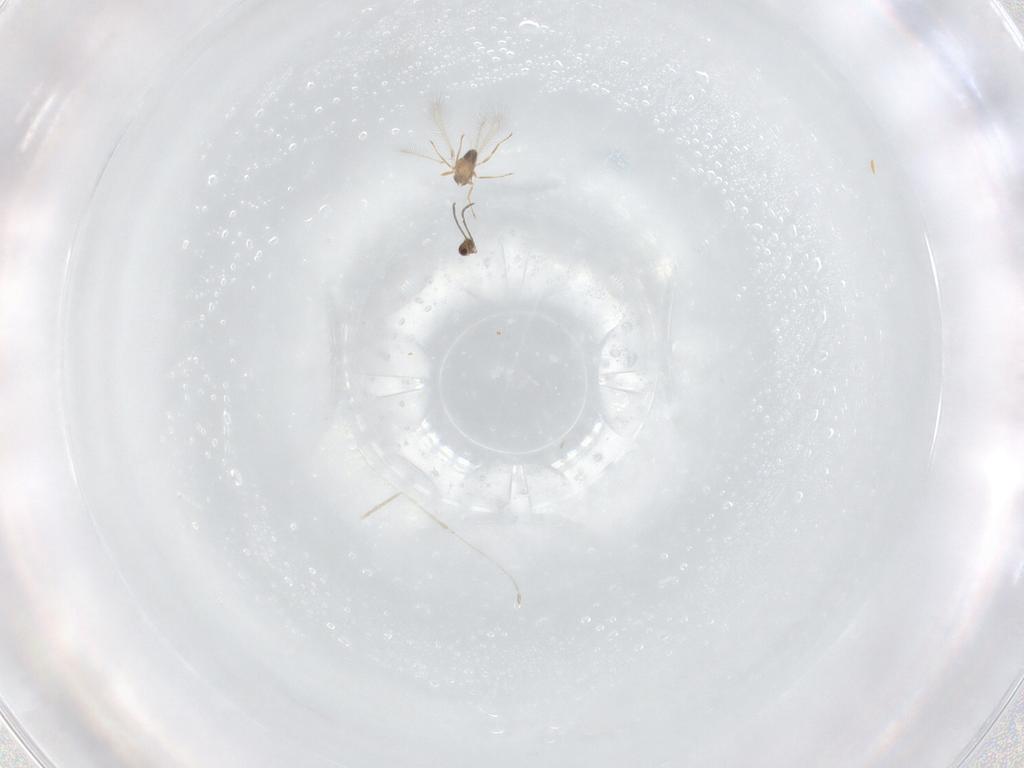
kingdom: Animalia
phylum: Arthropoda
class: Insecta
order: Hymenoptera
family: Mymaridae
